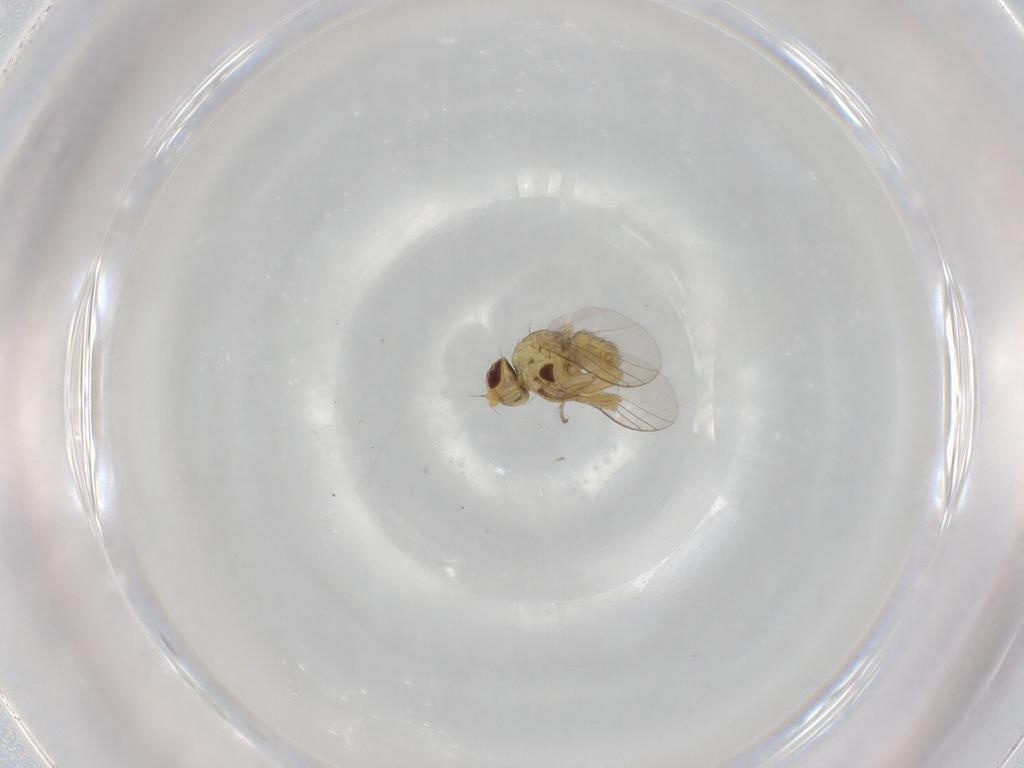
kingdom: Animalia
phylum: Arthropoda
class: Insecta
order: Diptera
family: Agromyzidae
